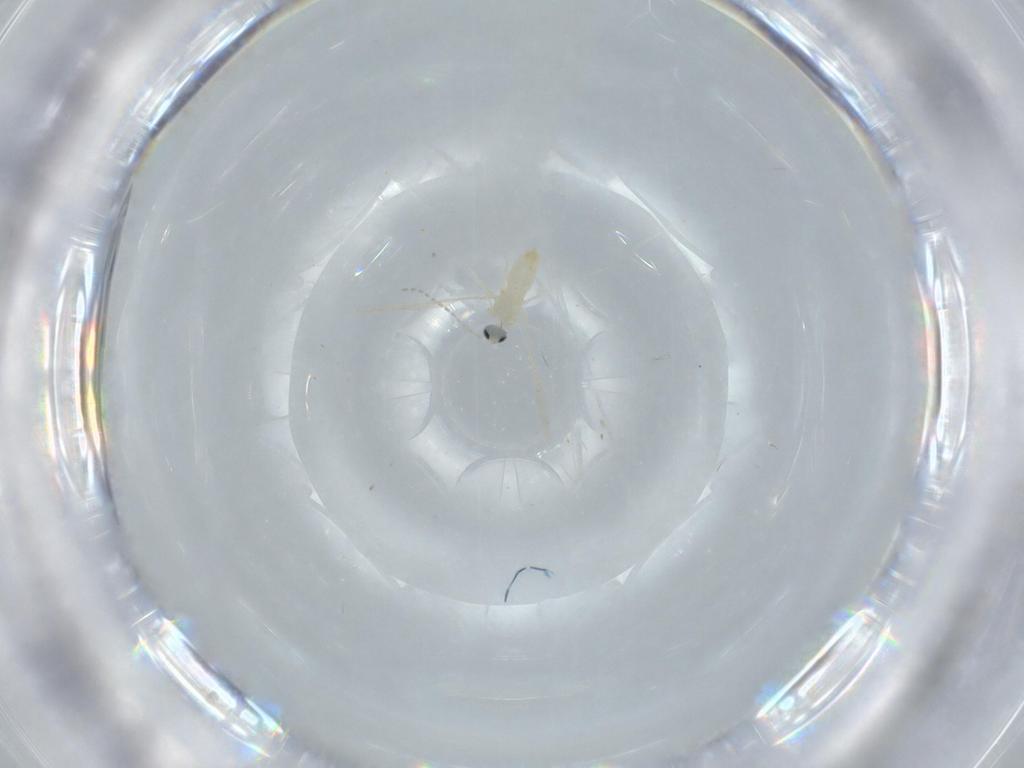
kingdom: Animalia
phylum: Arthropoda
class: Insecta
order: Diptera
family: Cecidomyiidae
